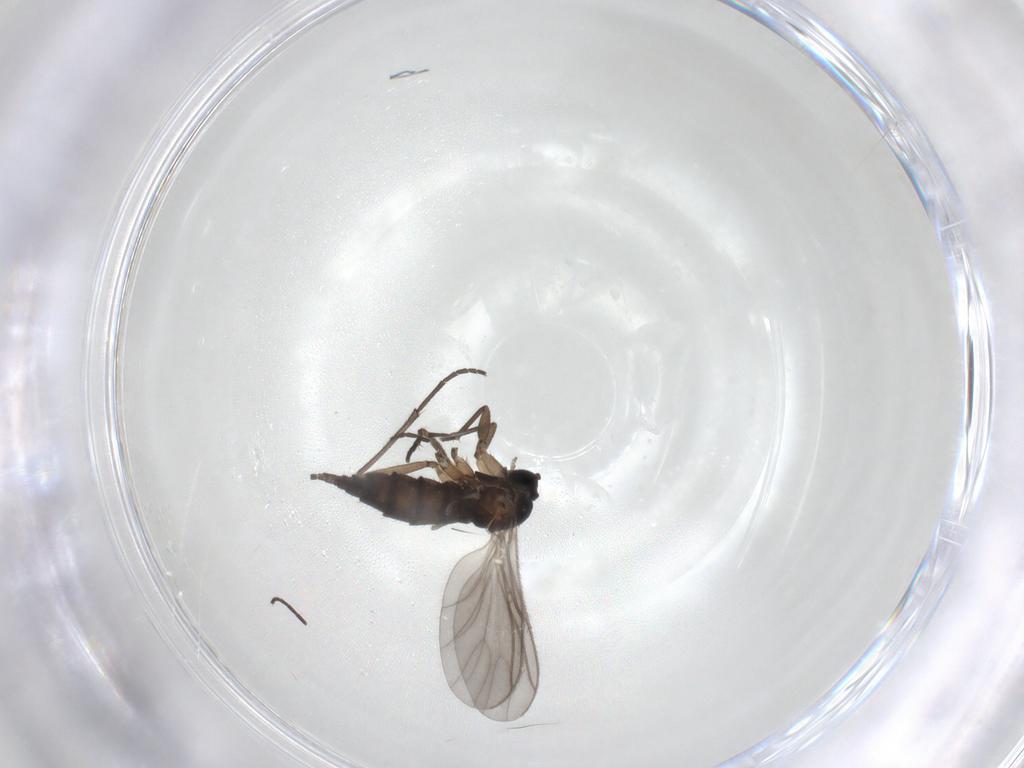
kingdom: Animalia
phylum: Arthropoda
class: Insecta
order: Diptera
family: Sciaridae
